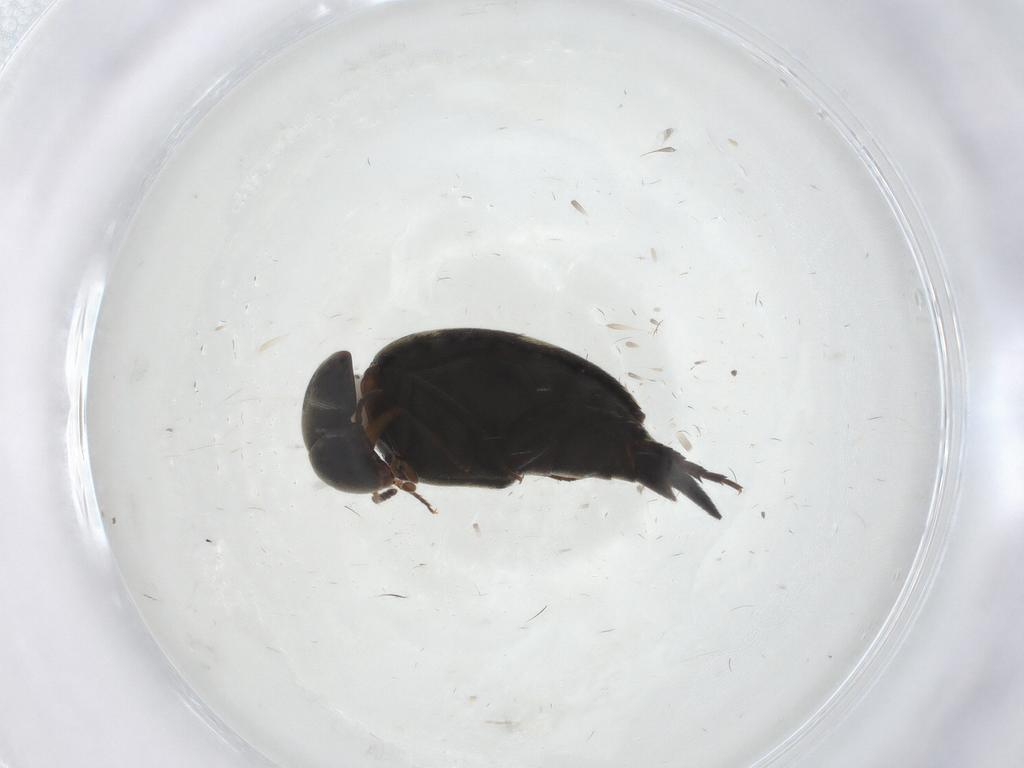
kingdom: Animalia
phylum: Arthropoda
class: Insecta
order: Coleoptera
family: Mordellidae
